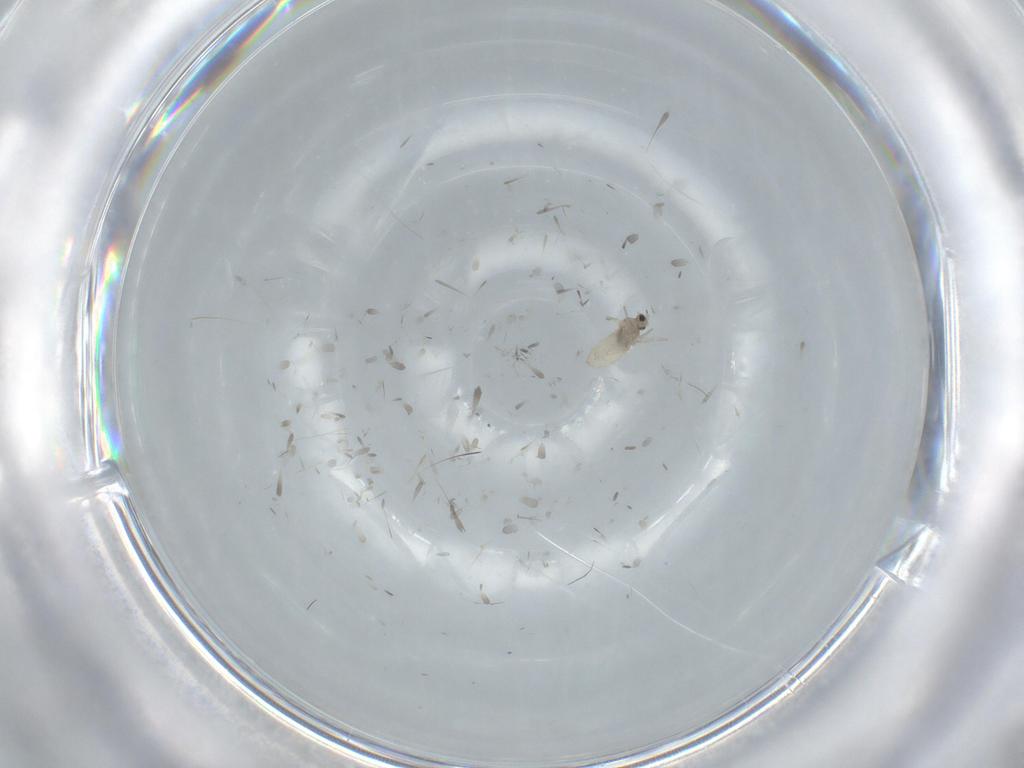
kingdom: Animalia
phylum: Arthropoda
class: Insecta
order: Diptera
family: Cecidomyiidae
